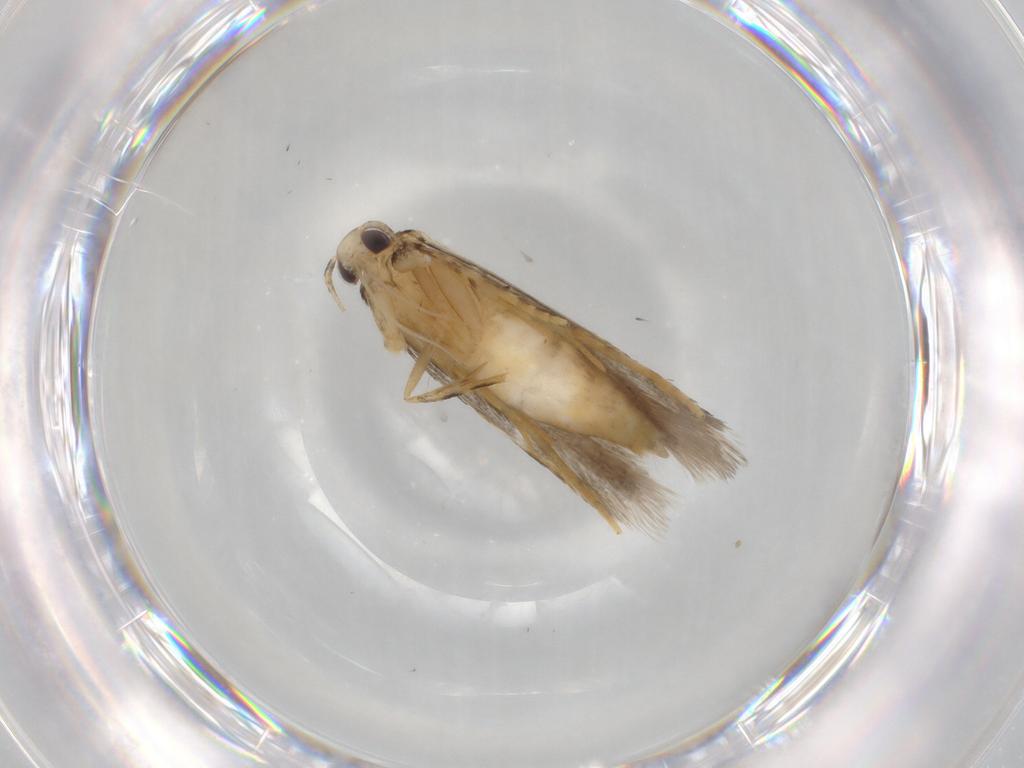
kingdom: Animalia
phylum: Arthropoda
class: Insecta
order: Lepidoptera
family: Autostichidae
